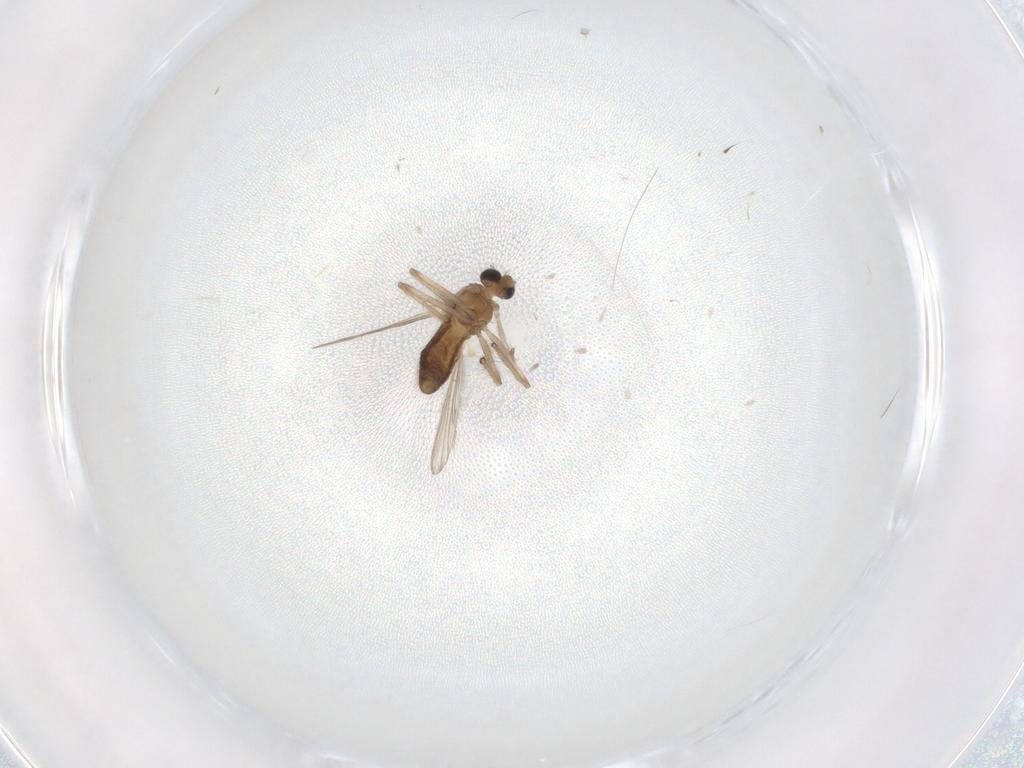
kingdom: Animalia
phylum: Arthropoda
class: Insecta
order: Diptera
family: Chironomidae
